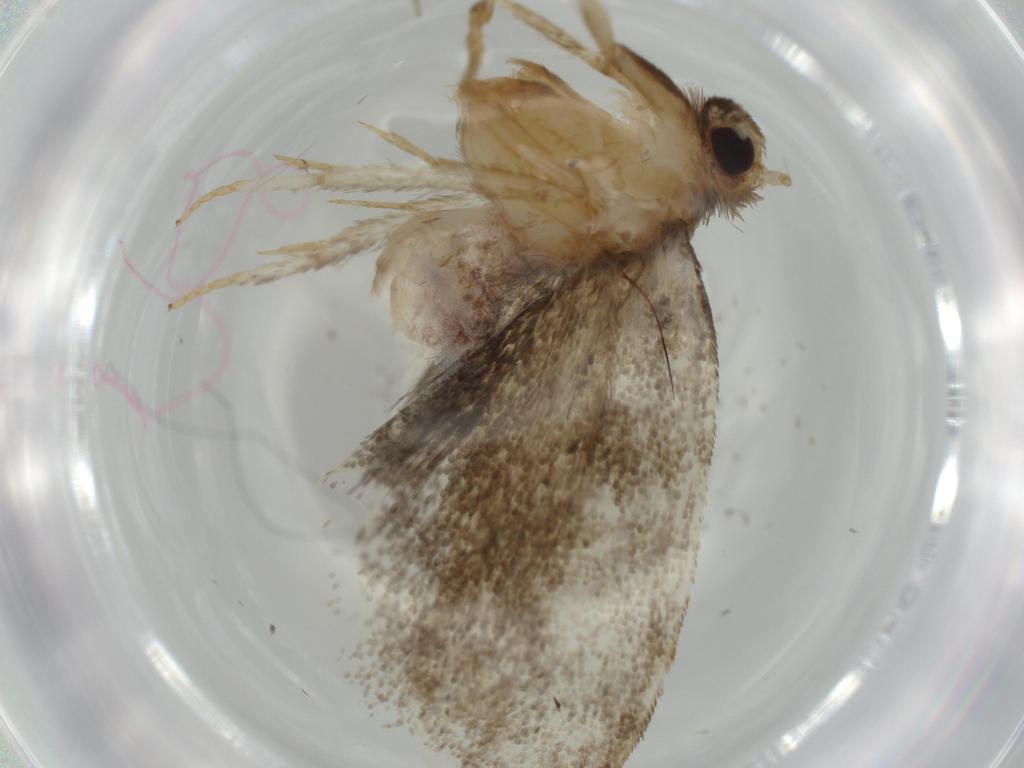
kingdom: Animalia
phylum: Arthropoda
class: Insecta
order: Lepidoptera
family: Tineidae
